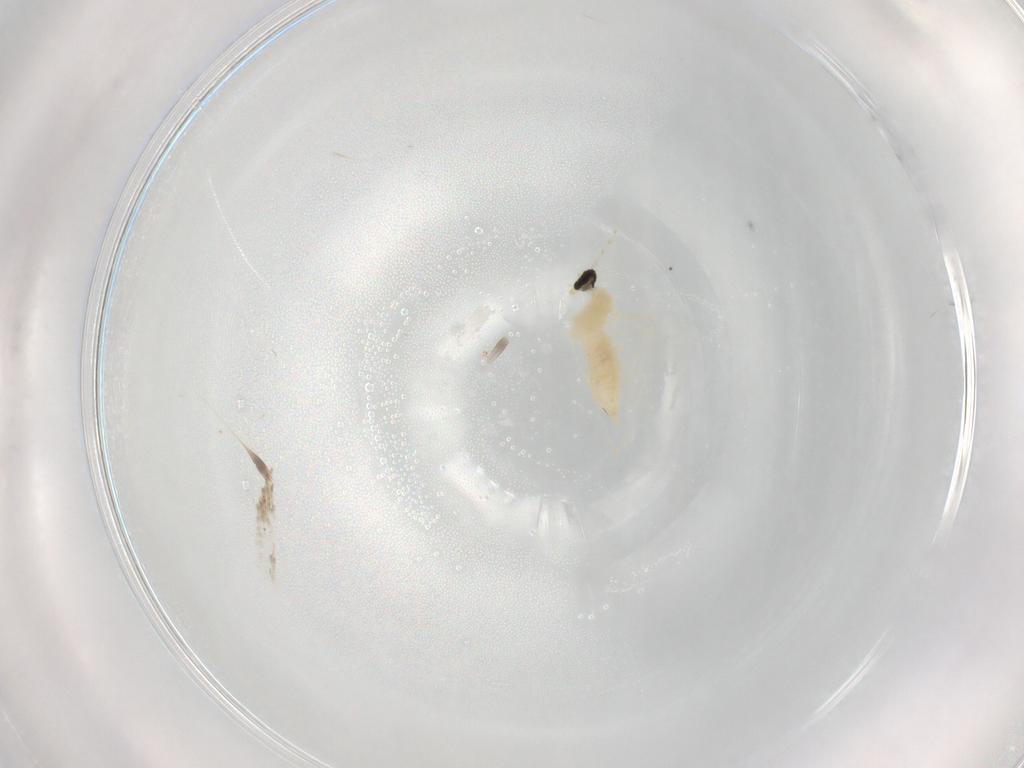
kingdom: Animalia
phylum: Arthropoda
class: Insecta
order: Diptera
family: Cecidomyiidae
